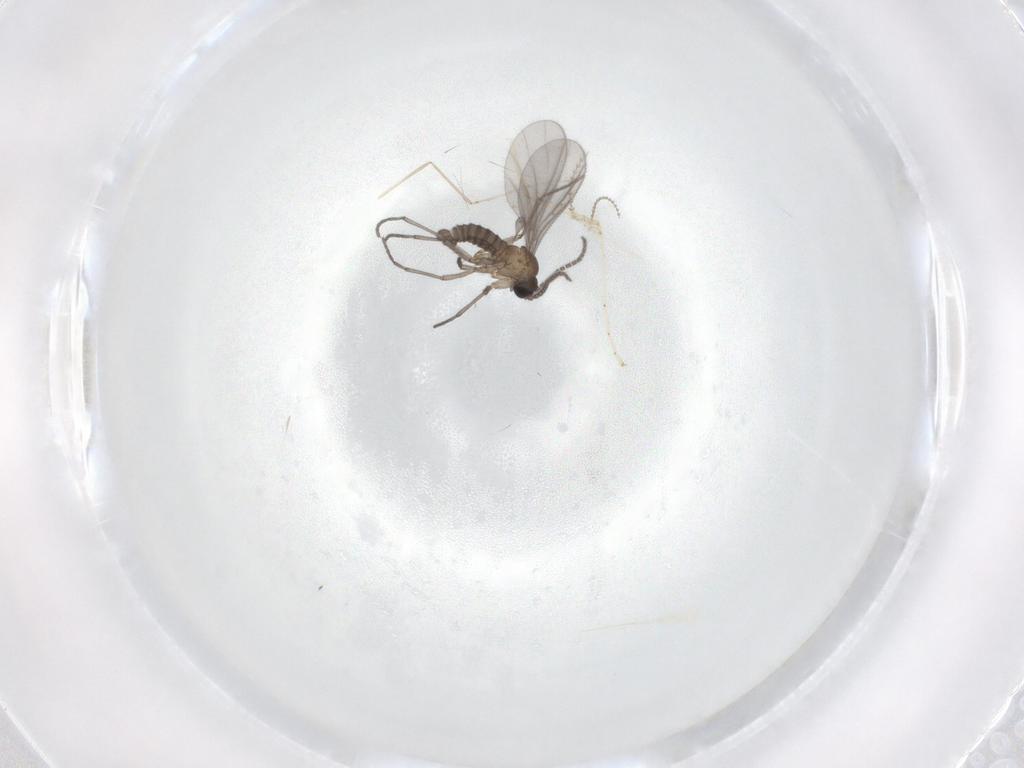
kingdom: Animalia
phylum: Arthropoda
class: Insecta
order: Diptera
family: Sciaridae
